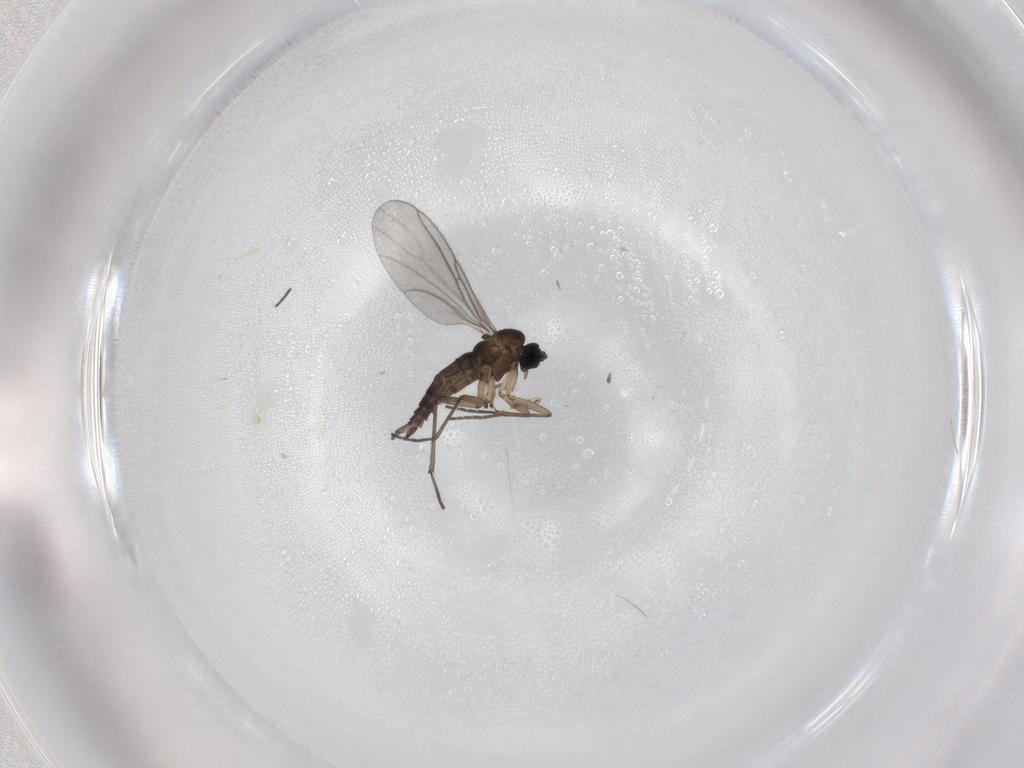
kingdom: Animalia
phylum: Arthropoda
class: Insecta
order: Diptera
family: Sciaridae
